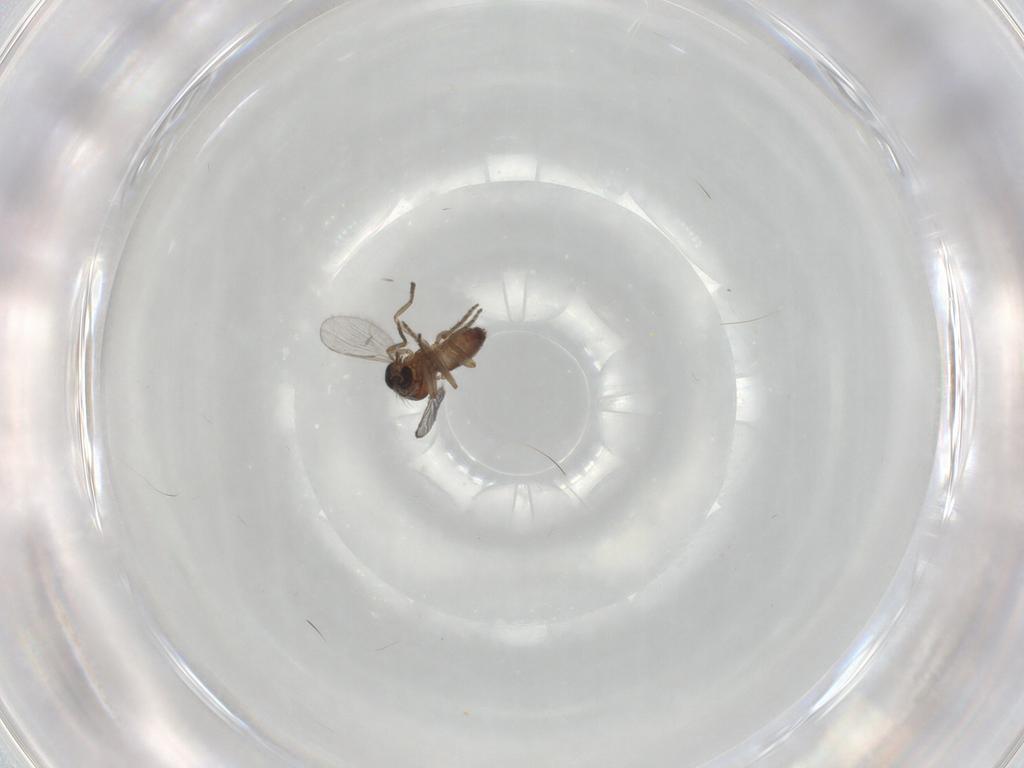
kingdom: Animalia
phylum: Arthropoda
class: Insecta
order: Diptera
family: Ceratopogonidae
